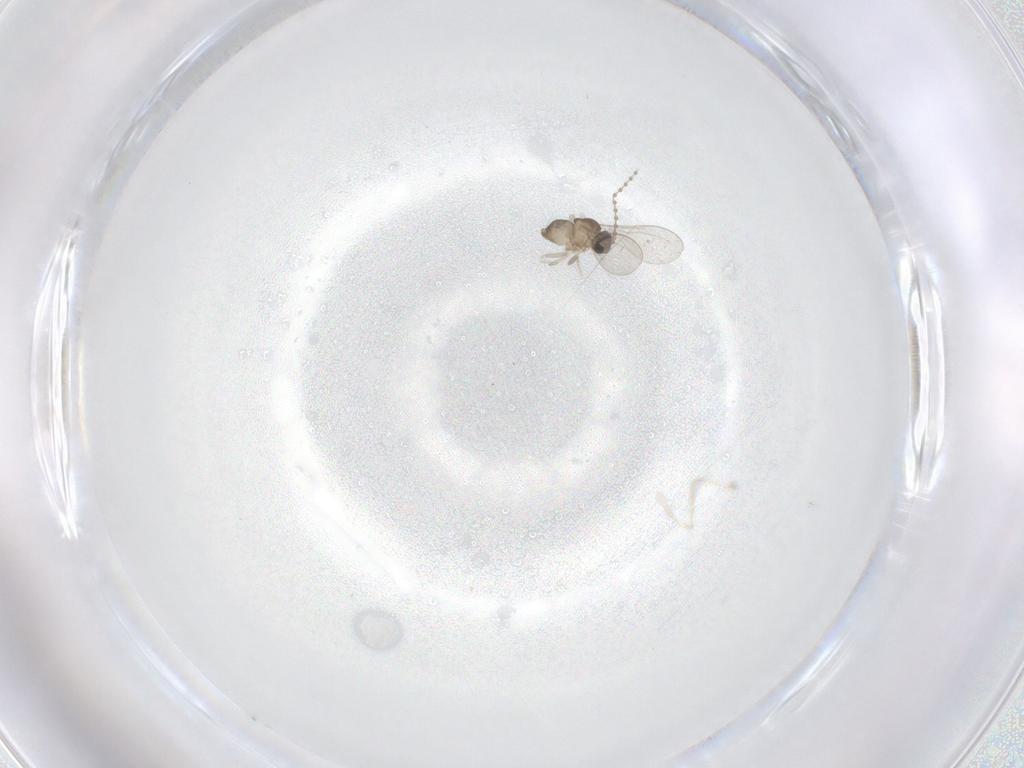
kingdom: Animalia
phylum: Arthropoda
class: Insecta
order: Diptera
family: Cecidomyiidae
